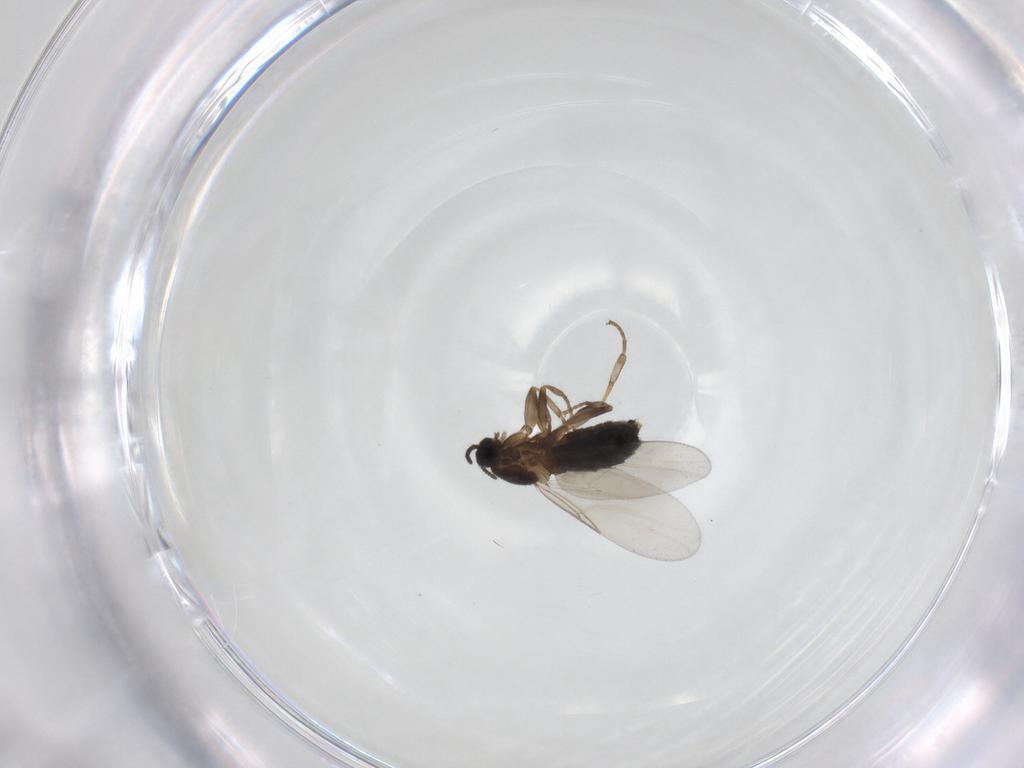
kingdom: Animalia
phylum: Arthropoda
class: Insecta
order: Diptera
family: Scatopsidae
